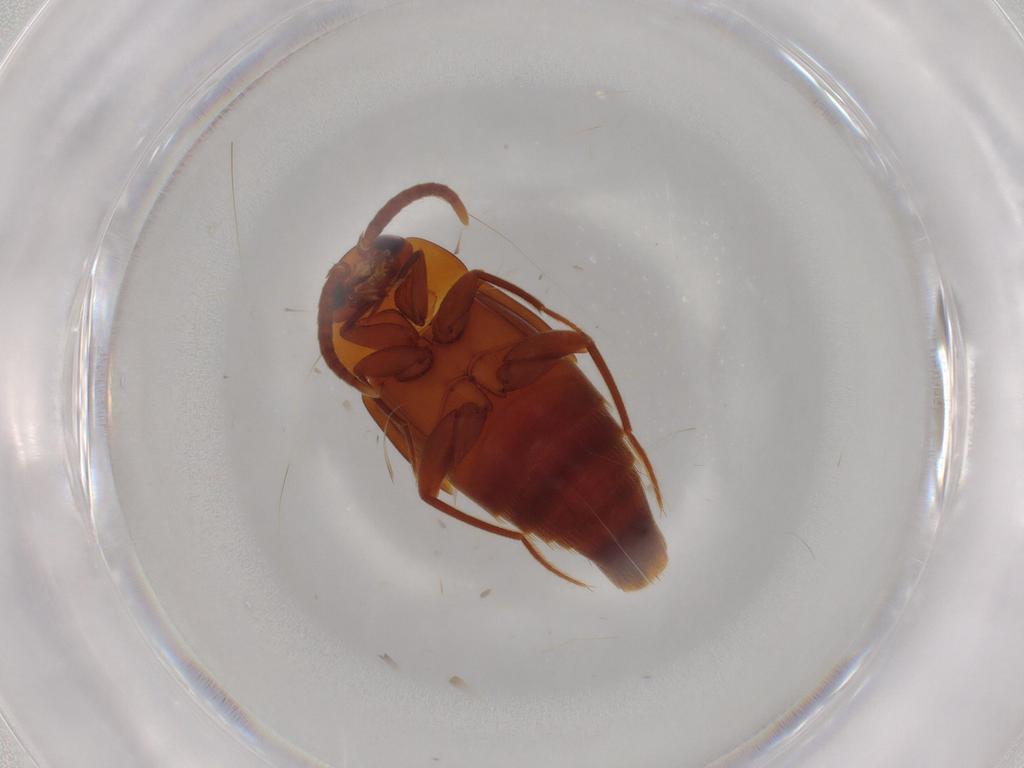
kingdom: Animalia
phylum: Arthropoda
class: Insecta
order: Coleoptera
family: Staphylinidae
